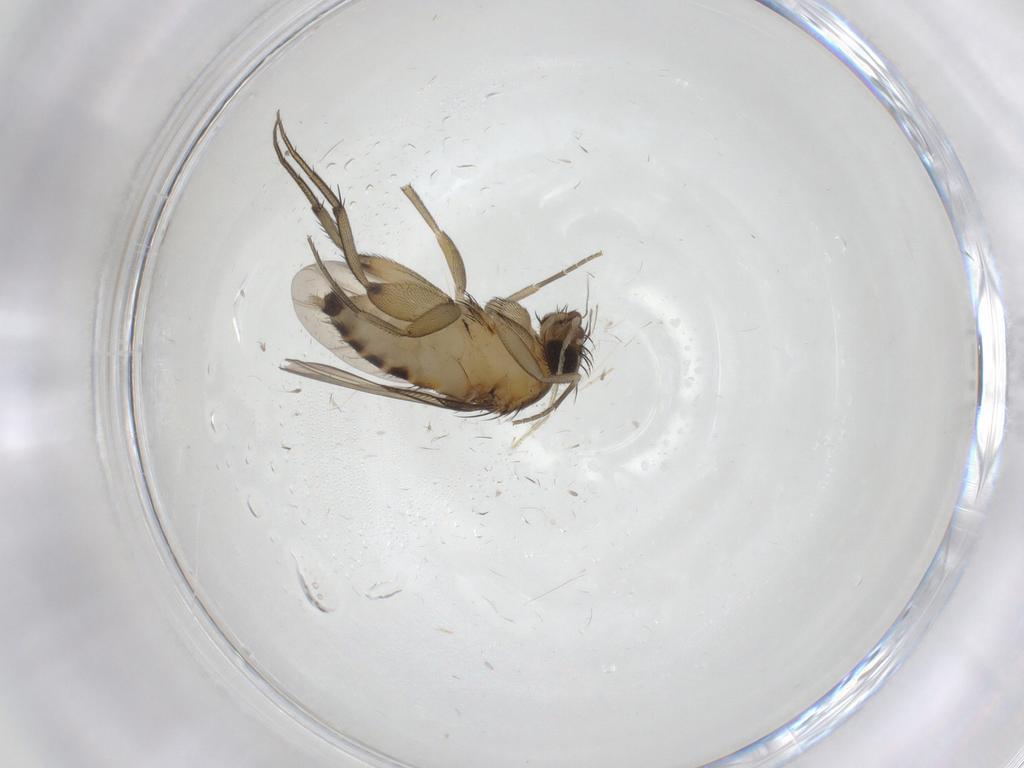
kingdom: Animalia
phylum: Arthropoda
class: Insecta
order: Diptera
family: Phoridae
